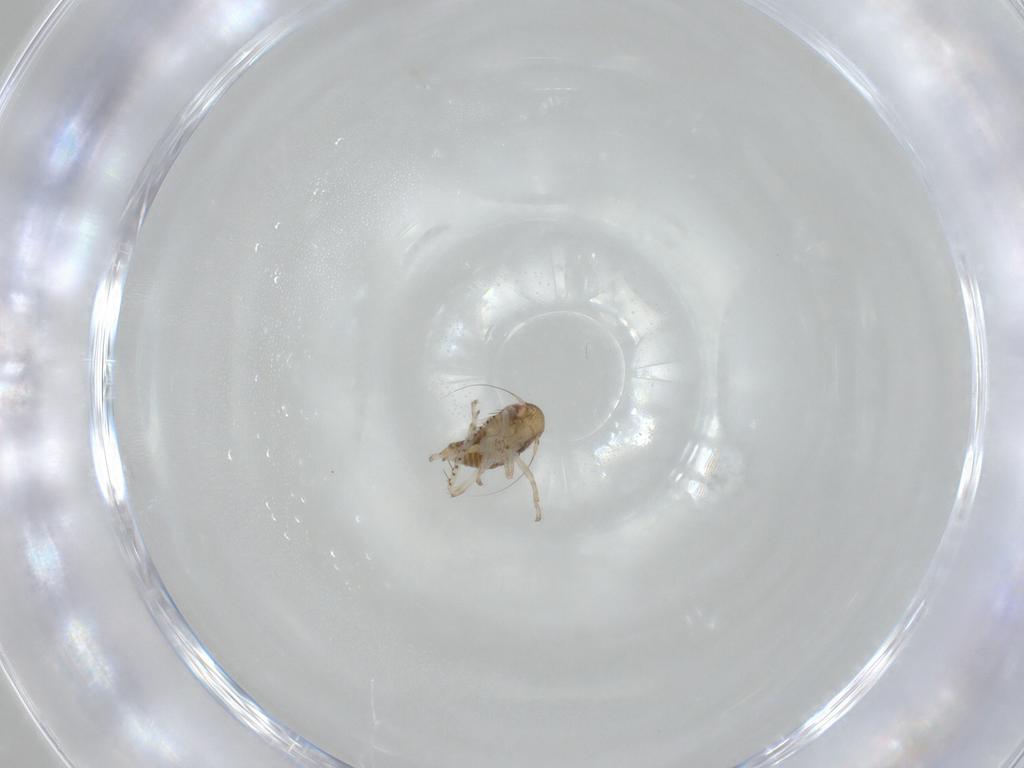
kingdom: Animalia
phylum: Arthropoda
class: Insecta
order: Hemiptera
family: Cicadellidae
